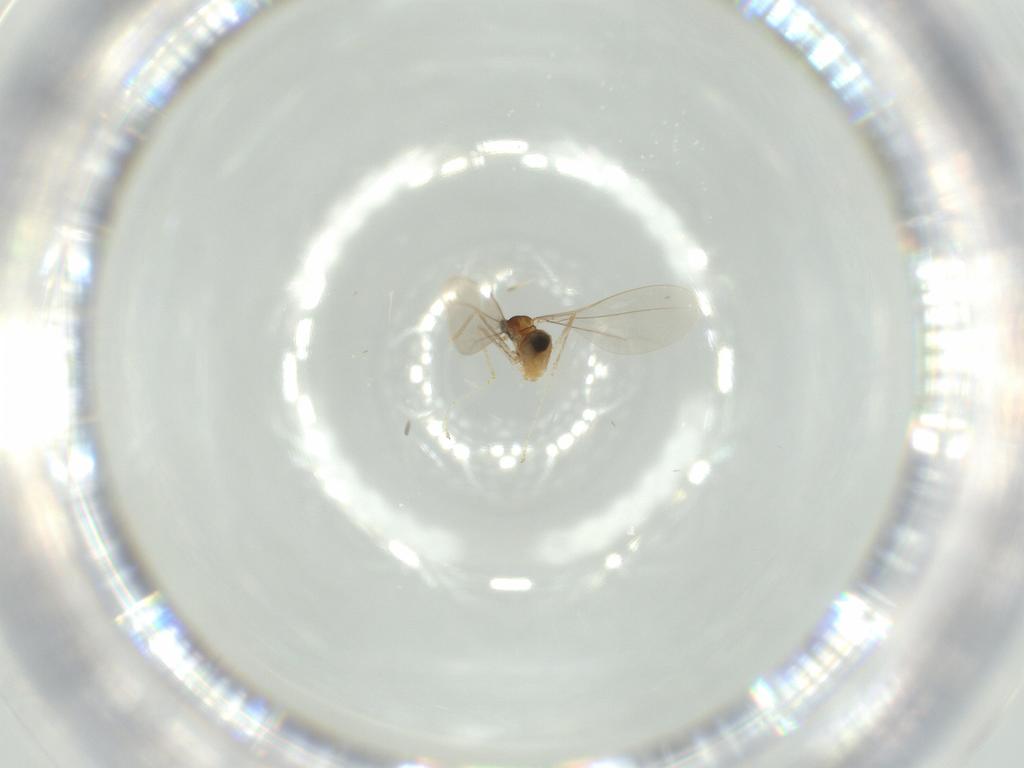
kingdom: Animalia
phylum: Arthropoda
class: Insecta
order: Diptera
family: Cecidomyiidae
